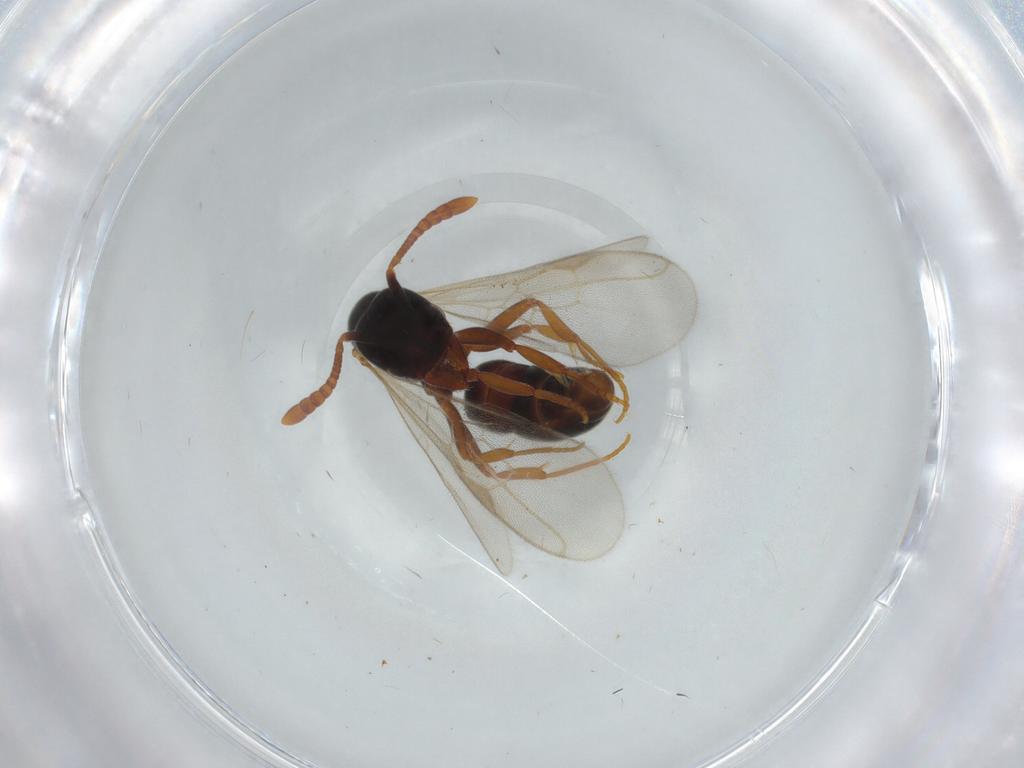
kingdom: Animalia
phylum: Arthropoda
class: Insecta
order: Hymenoptera
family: Formicidae
